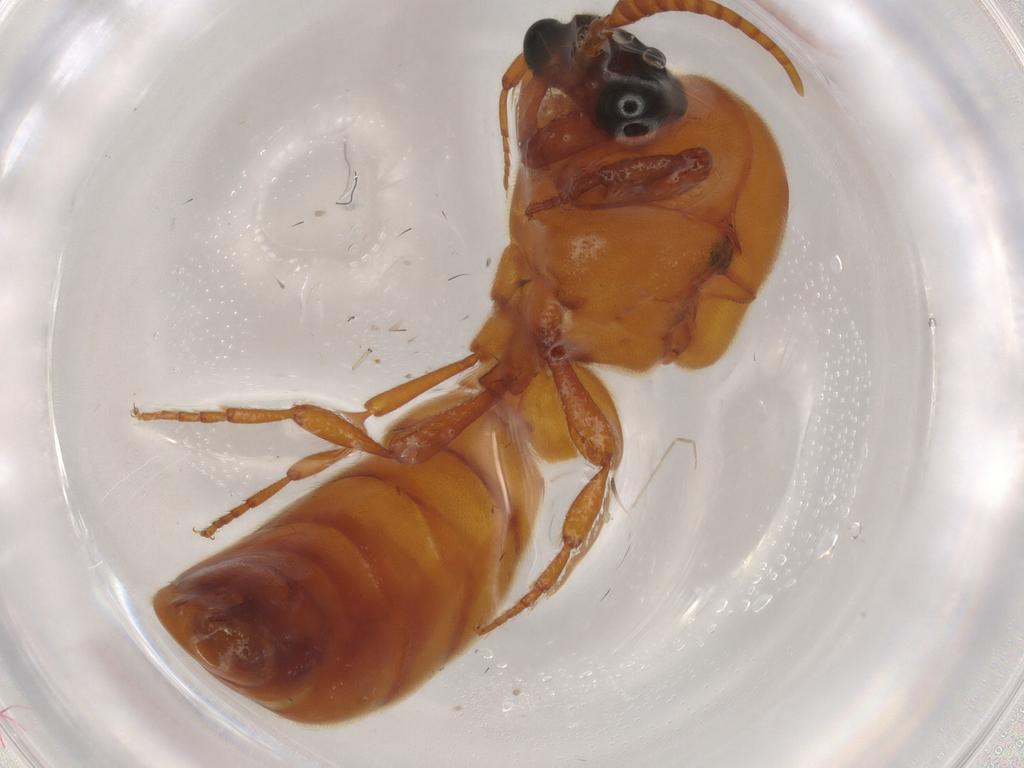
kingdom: Animalia
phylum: Arthropoda
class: Insecta
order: Hymenoptera
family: Formicidae
